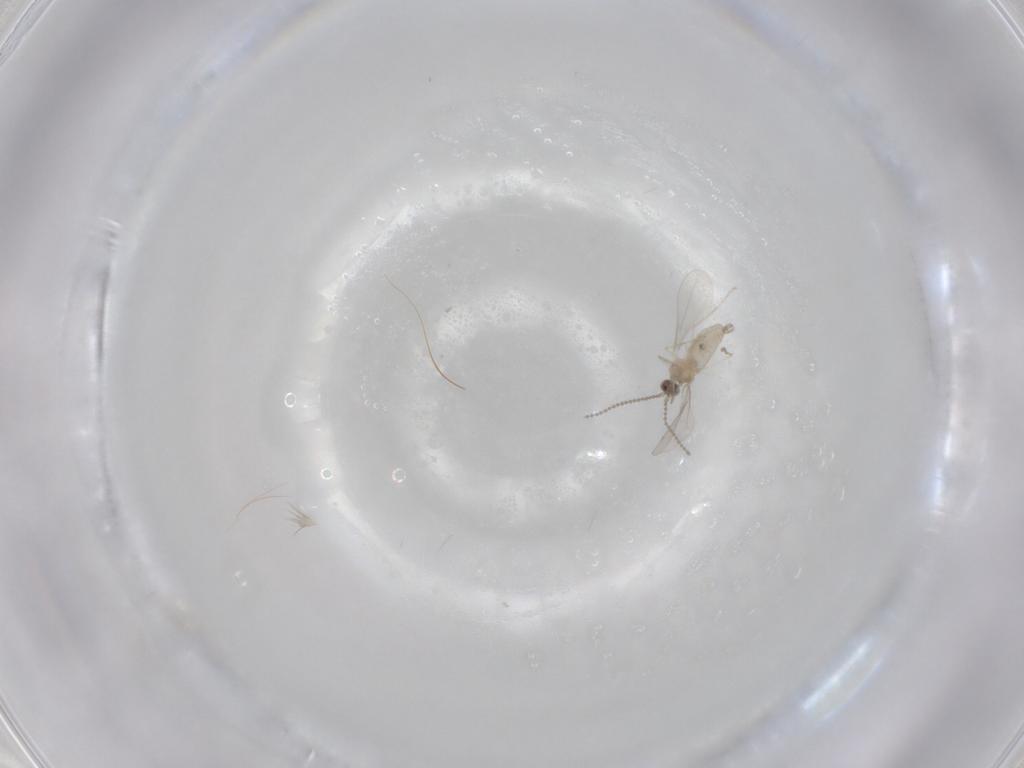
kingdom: Animalia
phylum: Arthropoda
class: Insecta
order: Diptera
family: Cecidomyiidae
